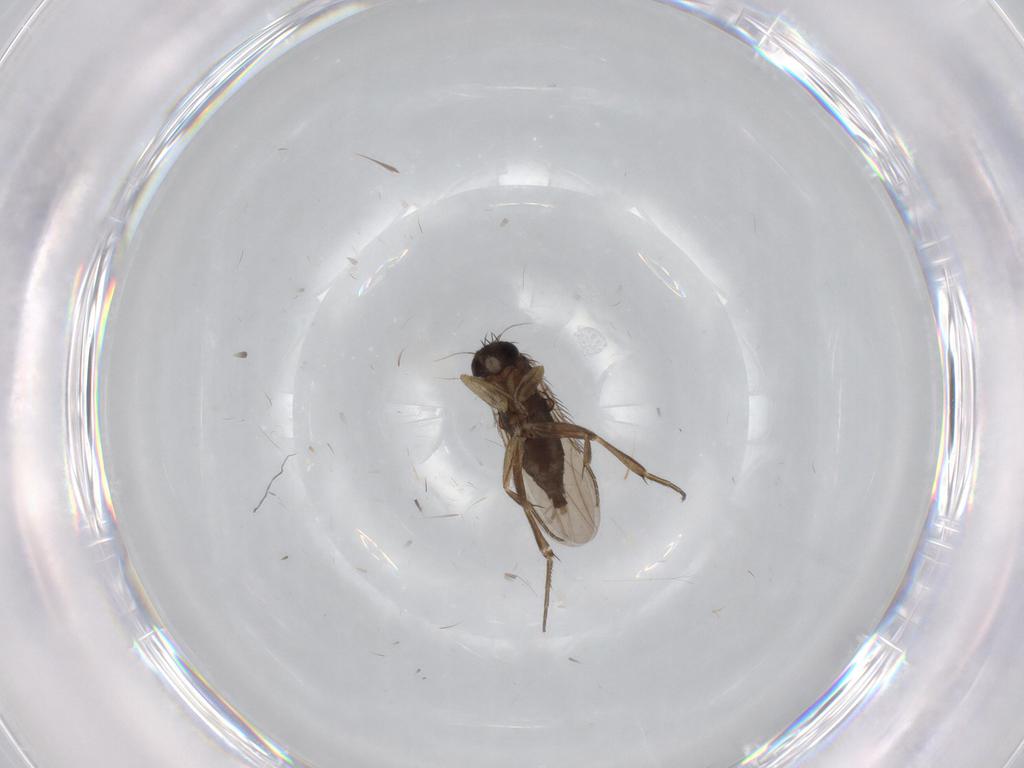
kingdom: Animalia
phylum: Arthropoda
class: Insecta
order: Diptera
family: Phoridae
